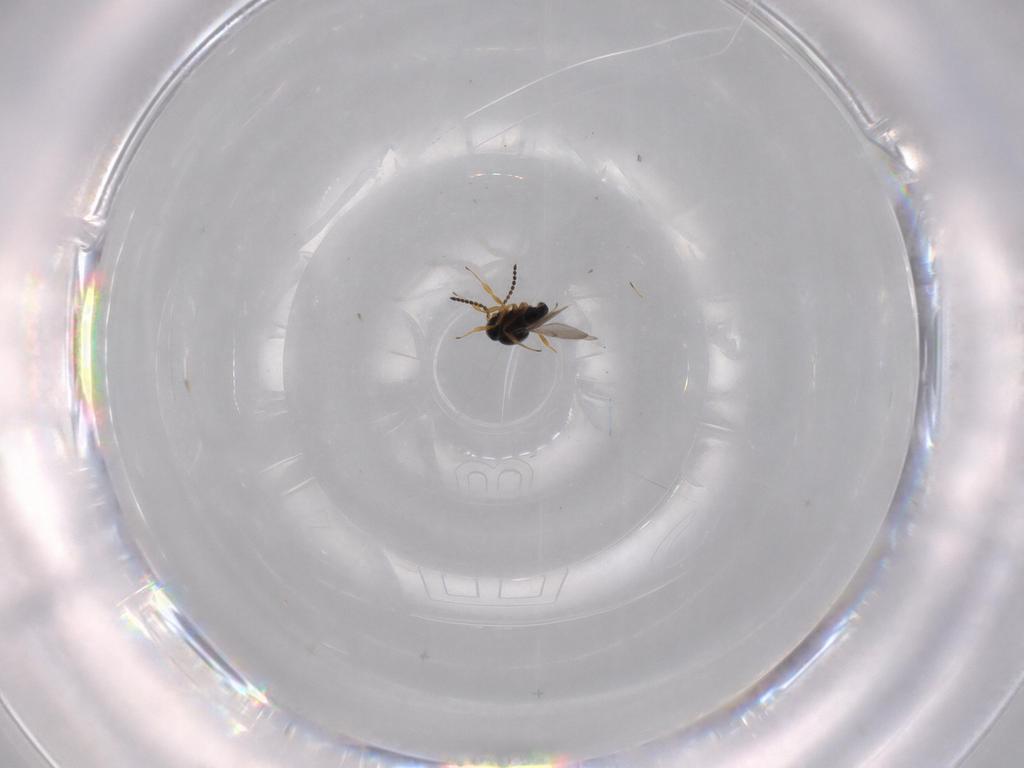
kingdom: Animalia
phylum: Arthropoda
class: Insecta
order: Hymenoptera
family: Scelionidae
